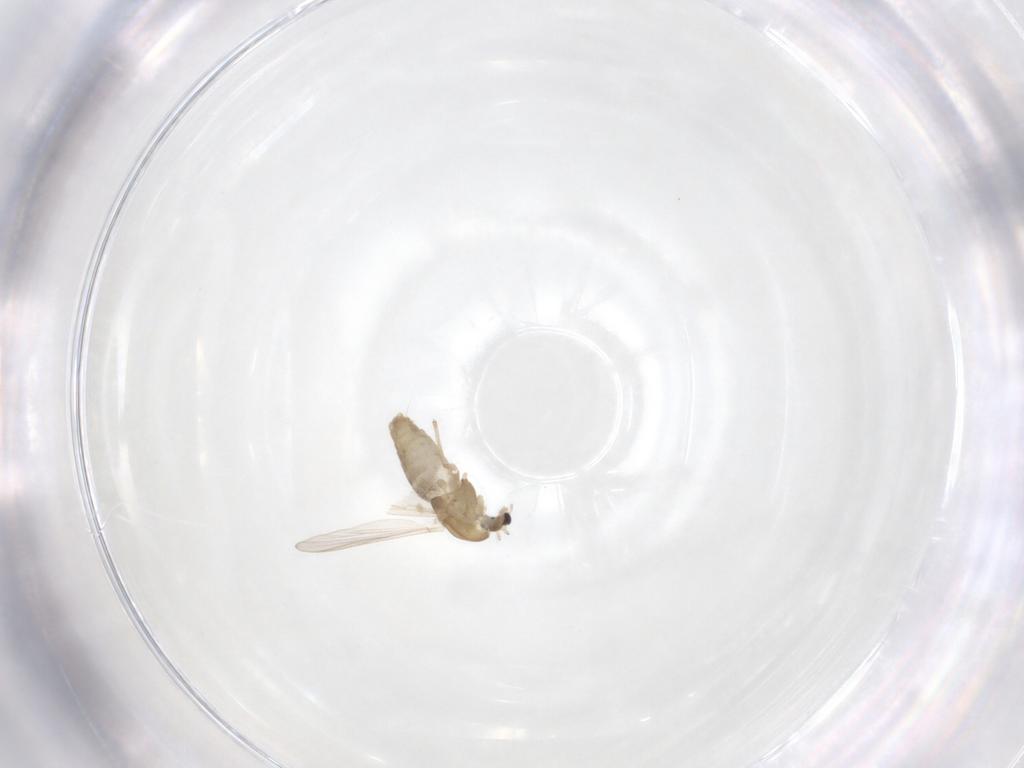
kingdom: Animalia
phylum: Arthropoda
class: Insecta
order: Diptera
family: Chironomidae
